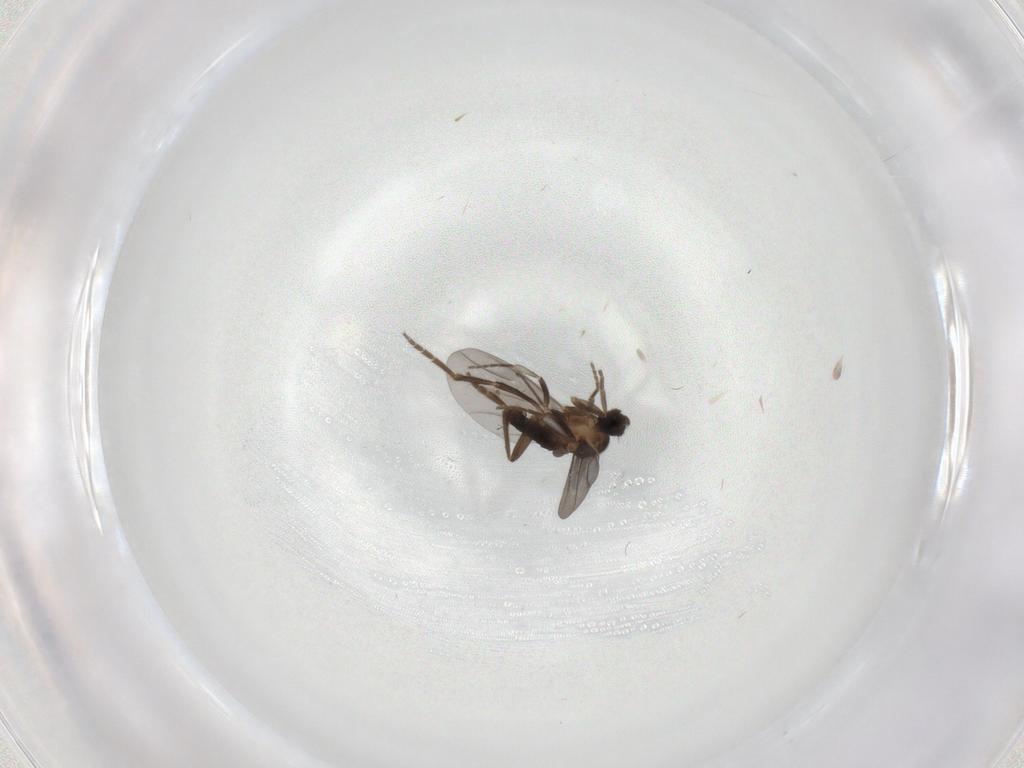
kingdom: Animalia
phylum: Arthropoda
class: Insecta
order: Diptera
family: Phoridae
